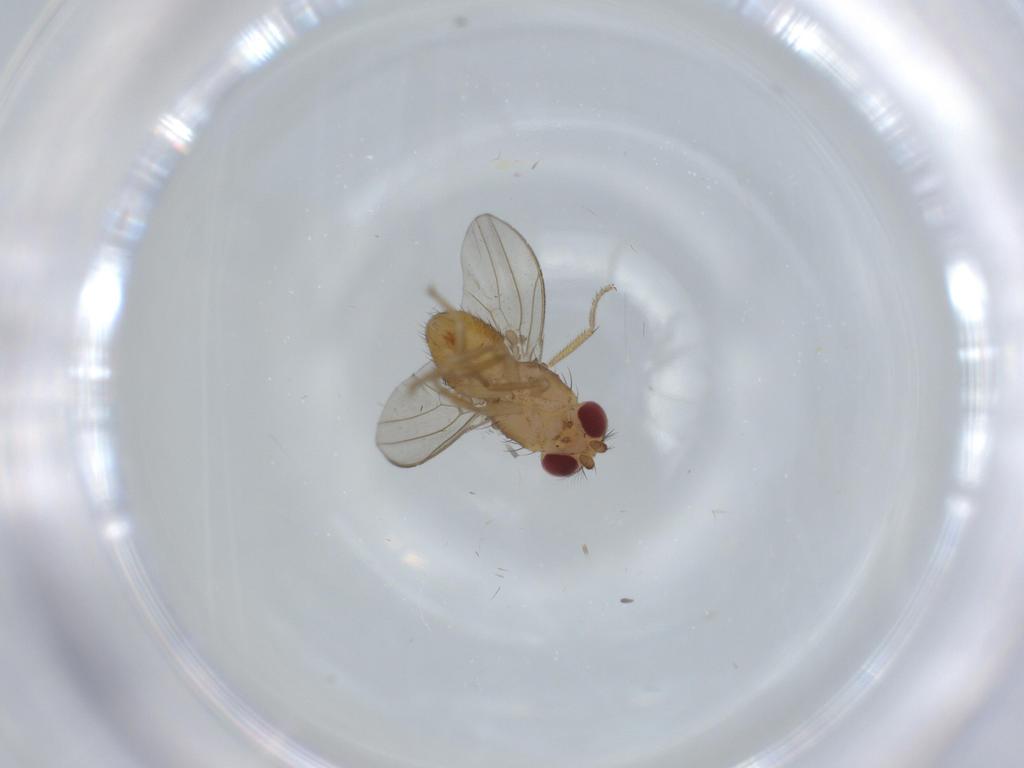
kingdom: Animalia
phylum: Arthropoda
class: Insecta
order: Diptera
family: Drosophilidae
